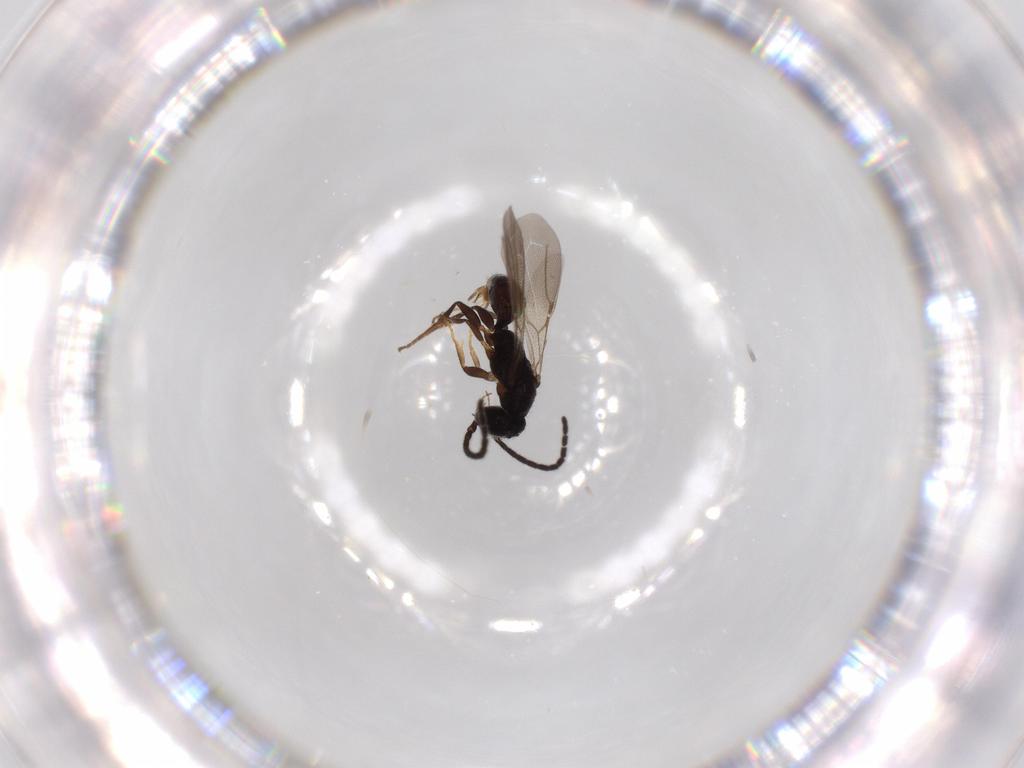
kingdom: Animalia
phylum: Arthropoda
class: Insecta
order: Hymenoptera
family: Bethylidae
